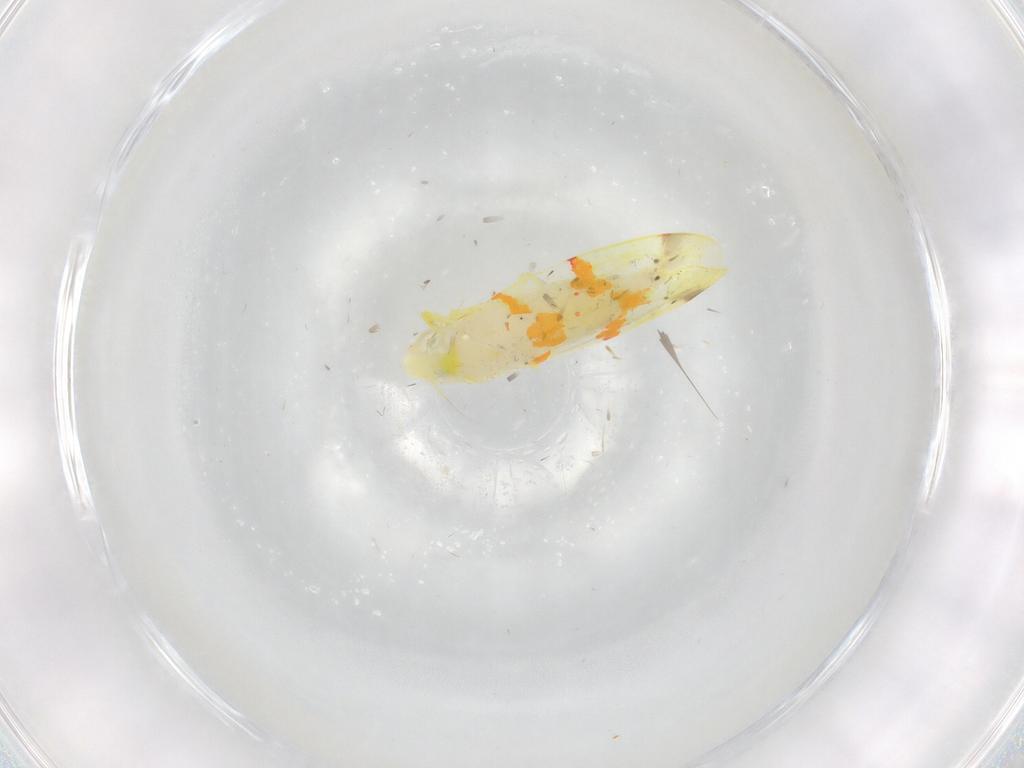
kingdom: Animalia
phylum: Arthropoda
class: Insecta
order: Hemiptera
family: Cicadellidae
